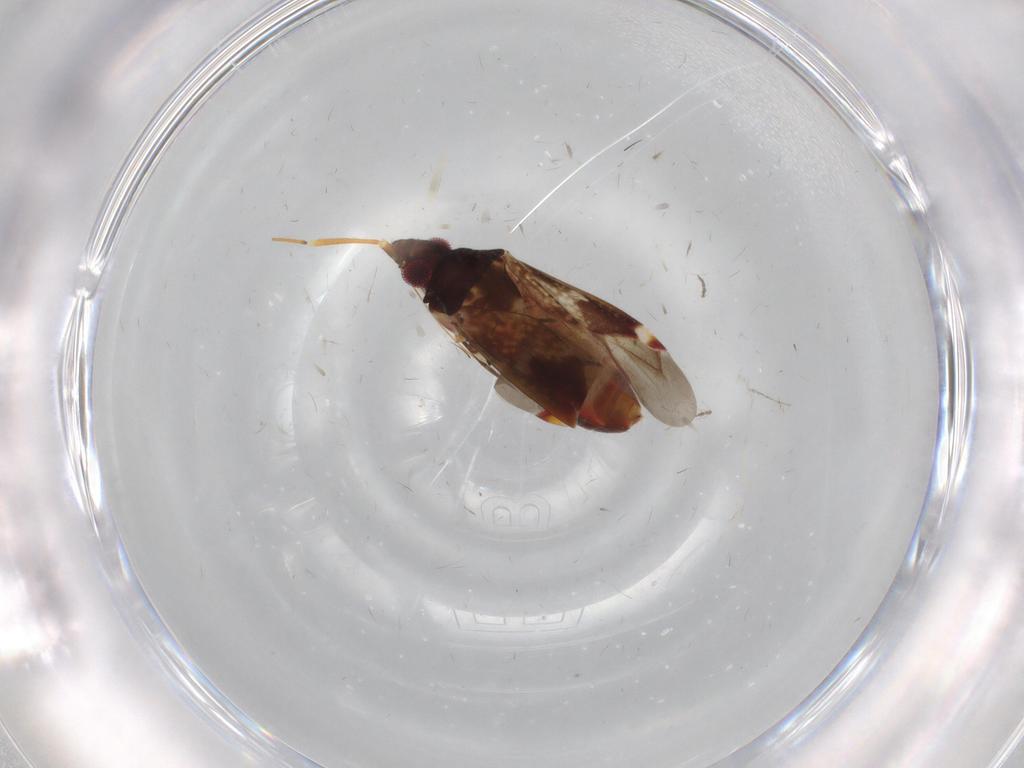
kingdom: Animalia
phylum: Arthropoda
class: Insecta
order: Hemiptera
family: Miridae
